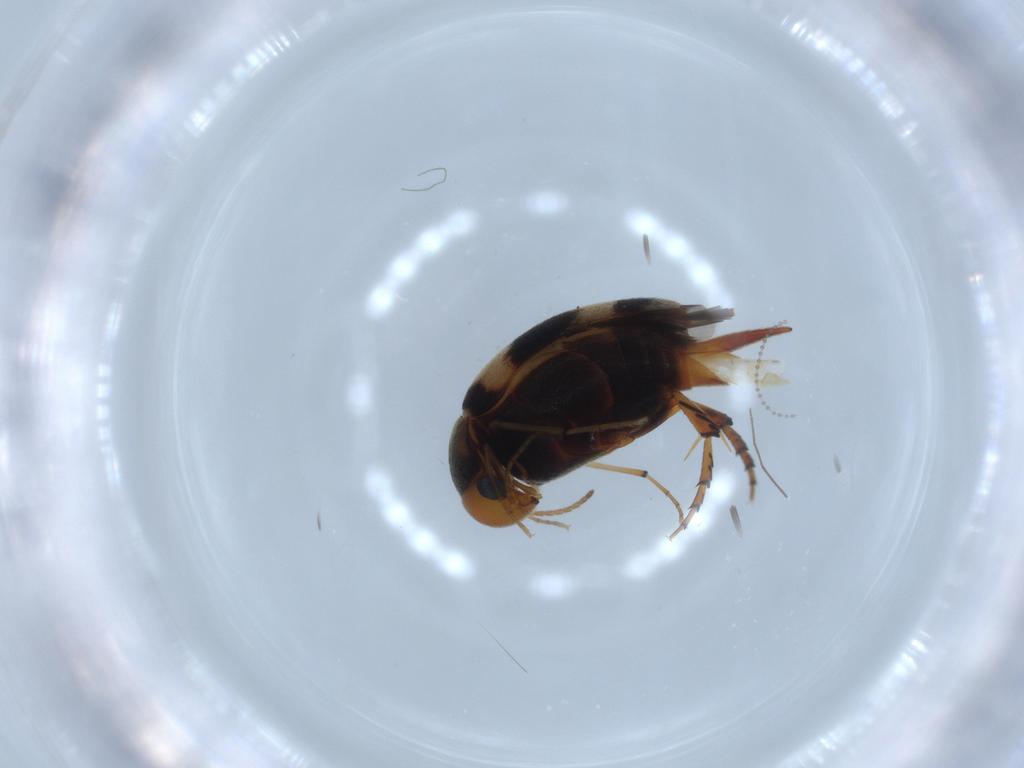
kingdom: Animalia
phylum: Arthropoda
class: Insecta
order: Coleoptera
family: Mordellidae
